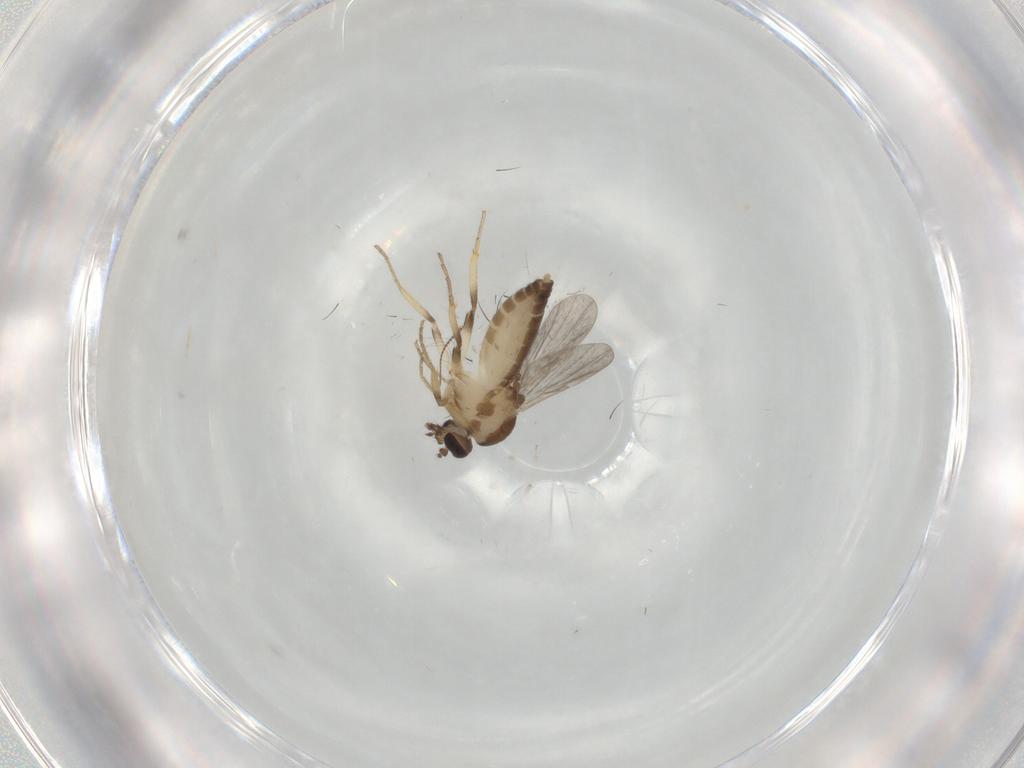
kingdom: Animalia
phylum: Arthropoda
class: Insecta
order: Diptera
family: Ceratopogonidae
